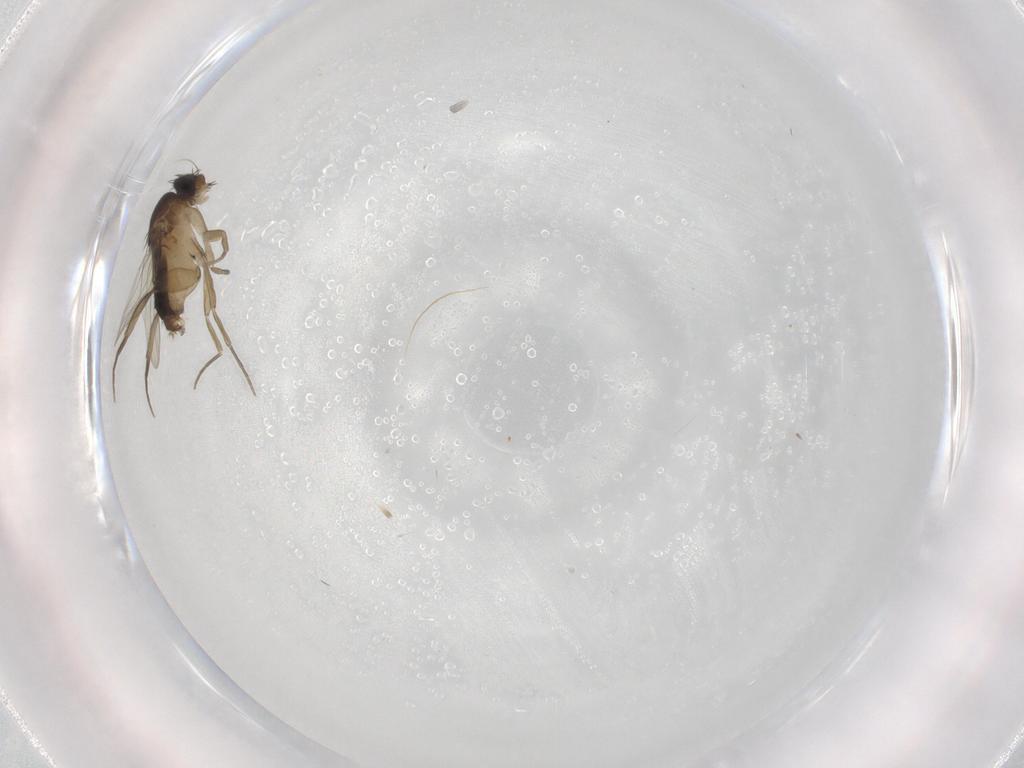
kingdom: Animalia
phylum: Arthropoda
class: Insecta
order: Diptera
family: Phoridae
